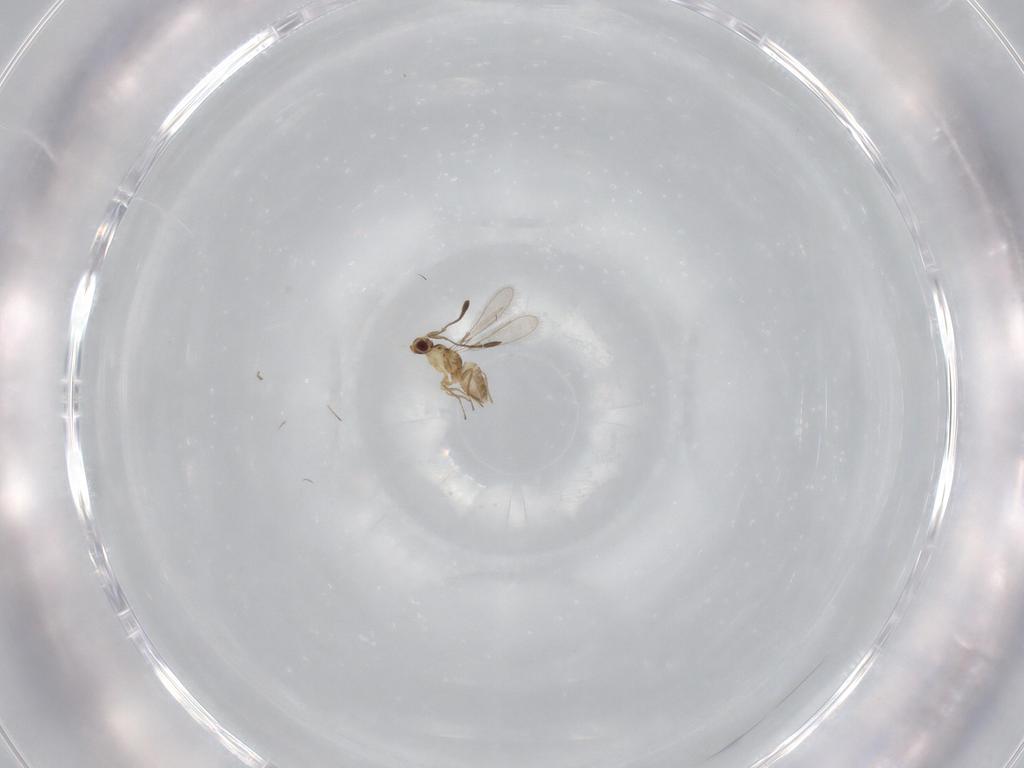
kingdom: Animalia
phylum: Arthropoda
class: Insecta
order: Hymenoptera
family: Mymaridae
